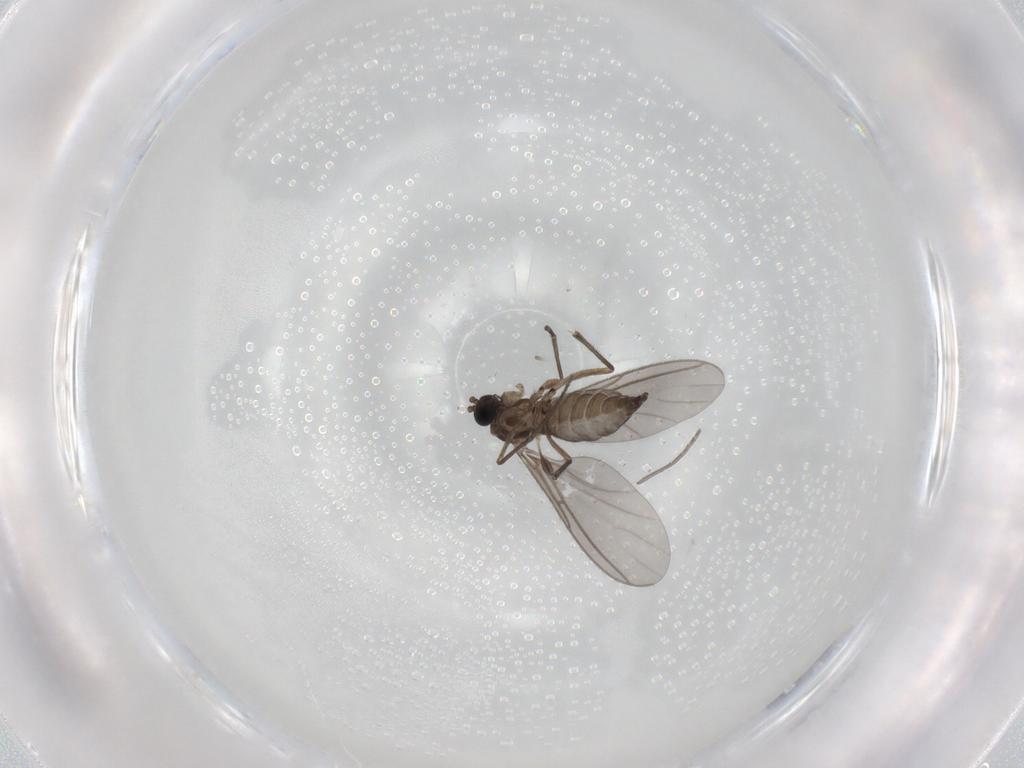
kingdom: Animalia
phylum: Arthropoda
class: Insecta
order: Diptera
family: Sciaridae
